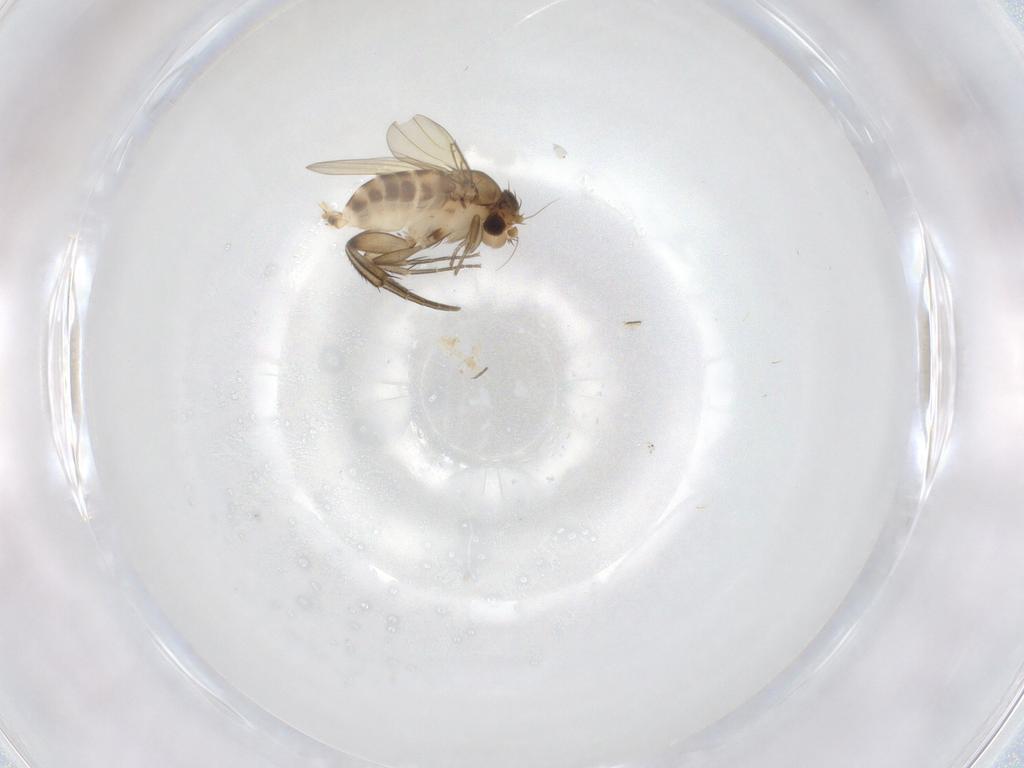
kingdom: Animalia
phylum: Arthropoda
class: Insecta
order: Diptera
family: Phoridae
